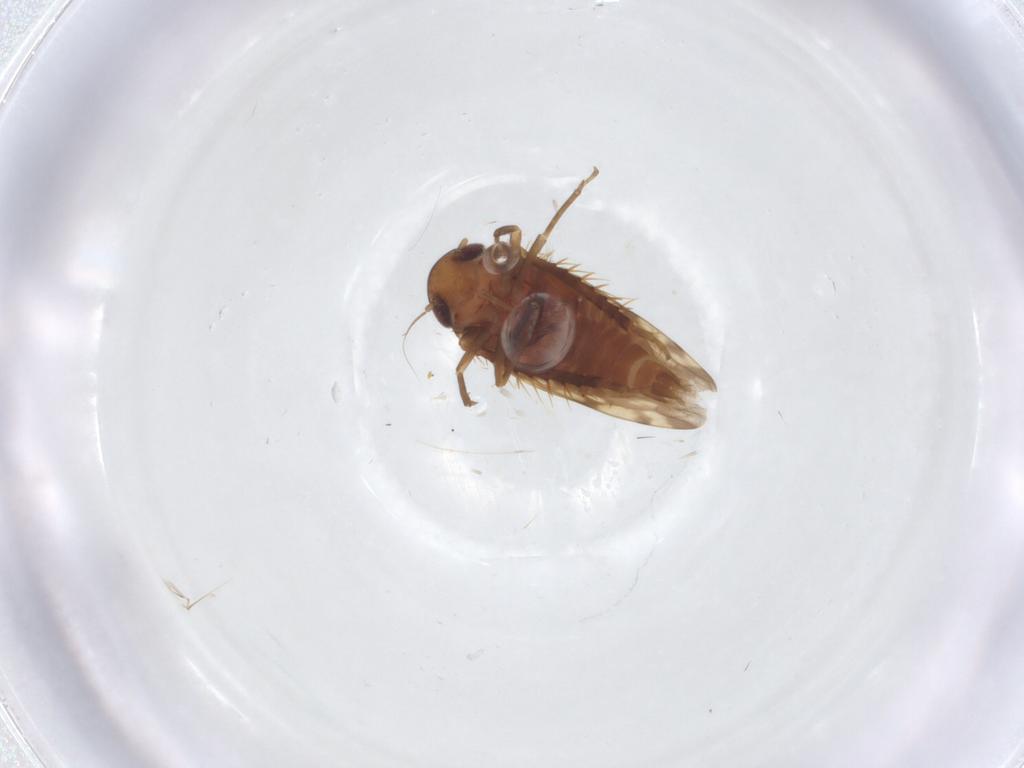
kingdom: Animalia
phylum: Arthropoda
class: Insecta
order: Hemiptera
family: Cicadellidae
